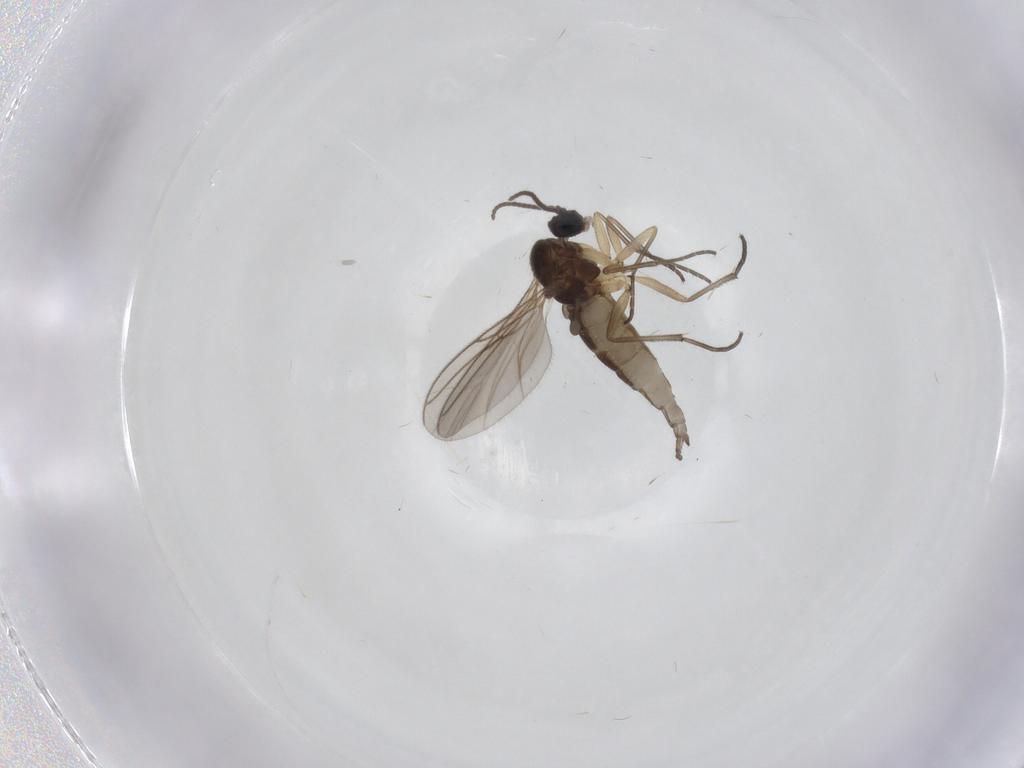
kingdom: Animalia
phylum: Arthropoda
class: Insecta
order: Diptera
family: Sciaridae
